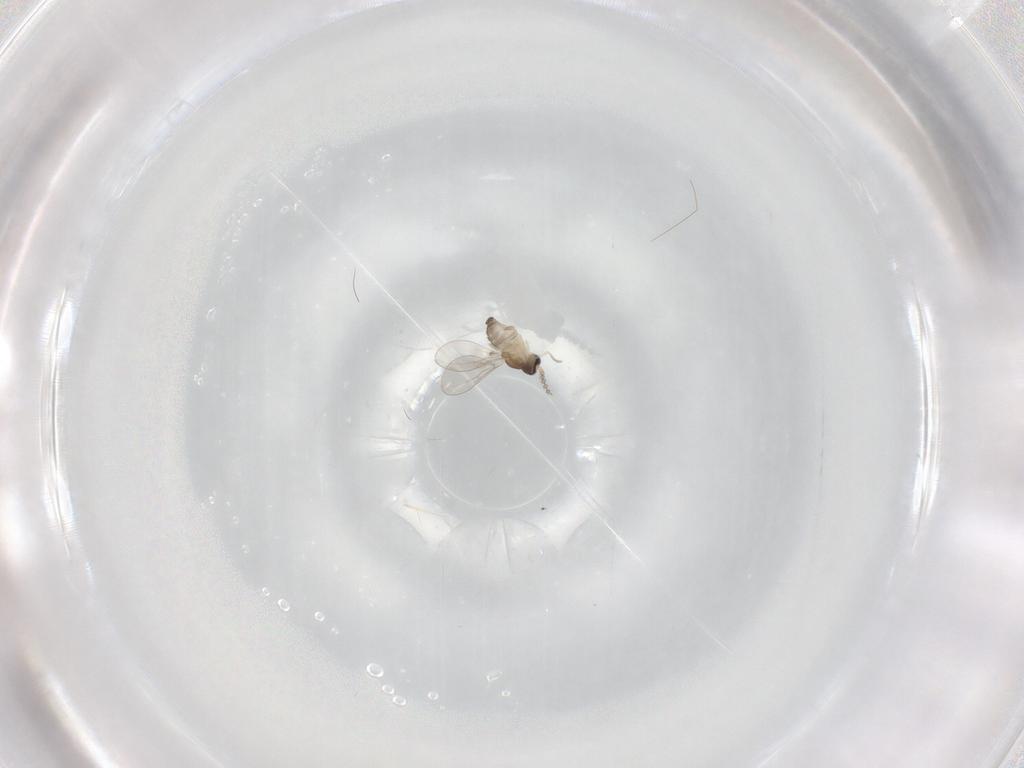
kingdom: Animalia
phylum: Arthropoda
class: Insecta
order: Diptera
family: Cecidomyiidae
